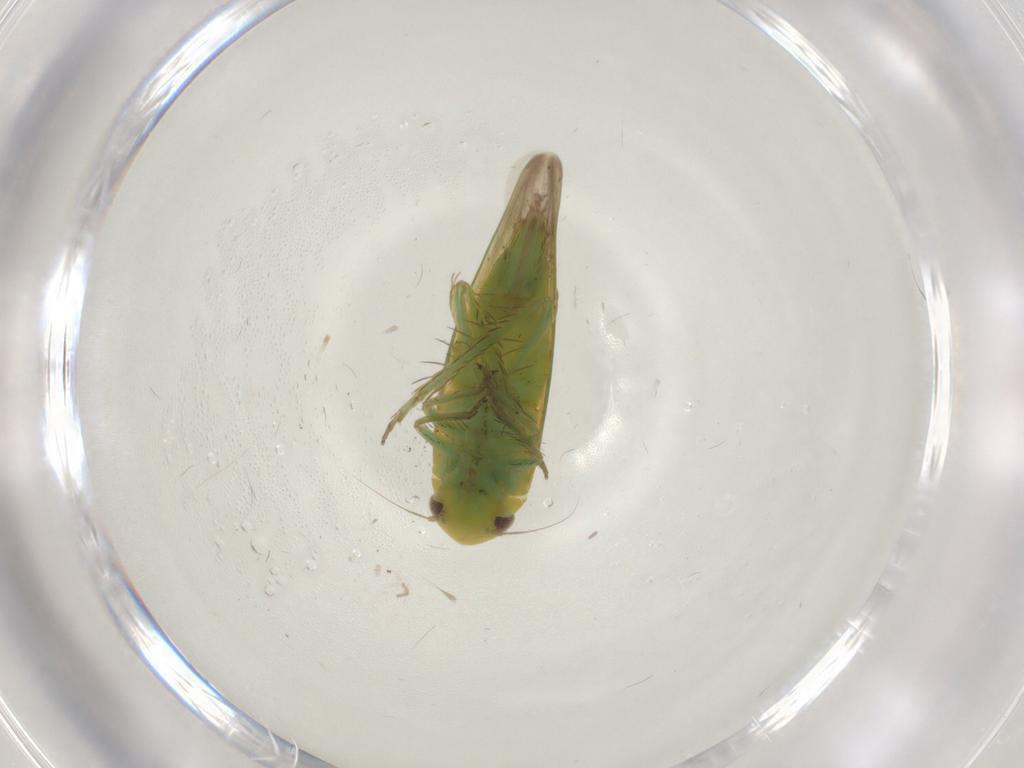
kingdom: Animalia
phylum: Arthropoda
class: Insecta
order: Hemiptera
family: Cicadellidae
